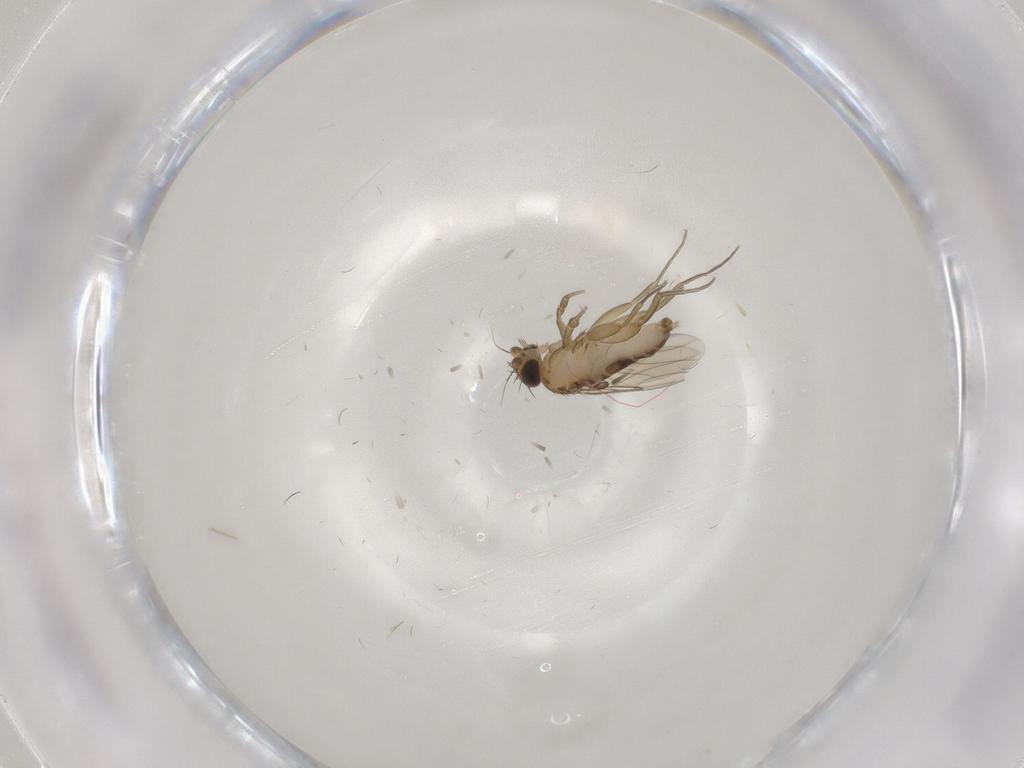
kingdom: Animalia
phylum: Arthropoda
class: Insecta
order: Diptera
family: Phoridae
